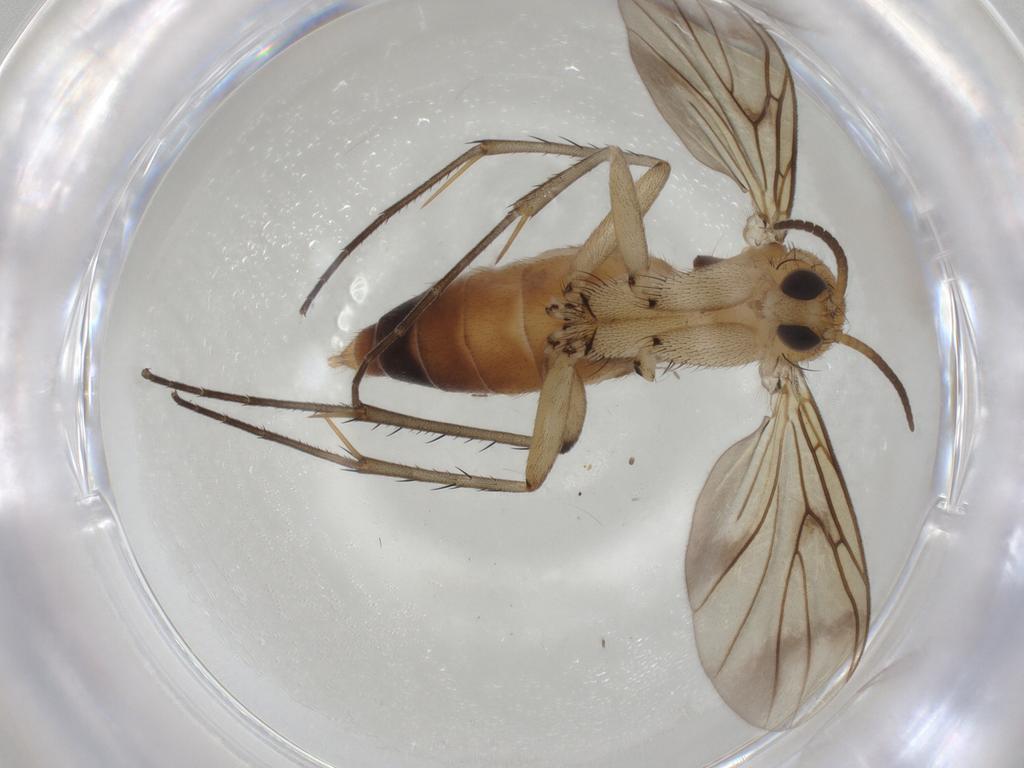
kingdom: Animalia
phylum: Arthropoda
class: Insecta
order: Diptera
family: Mycetophilidae
